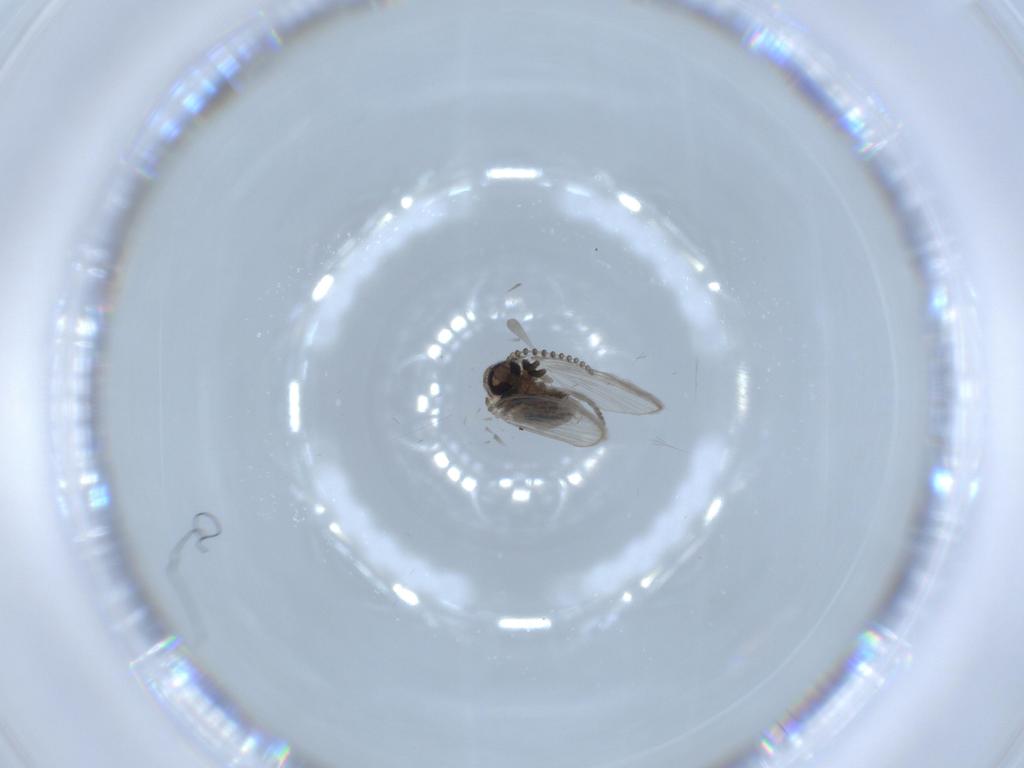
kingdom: Animalia
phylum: Arthropoda
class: Insecta
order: Diptera
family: Psychodidae
